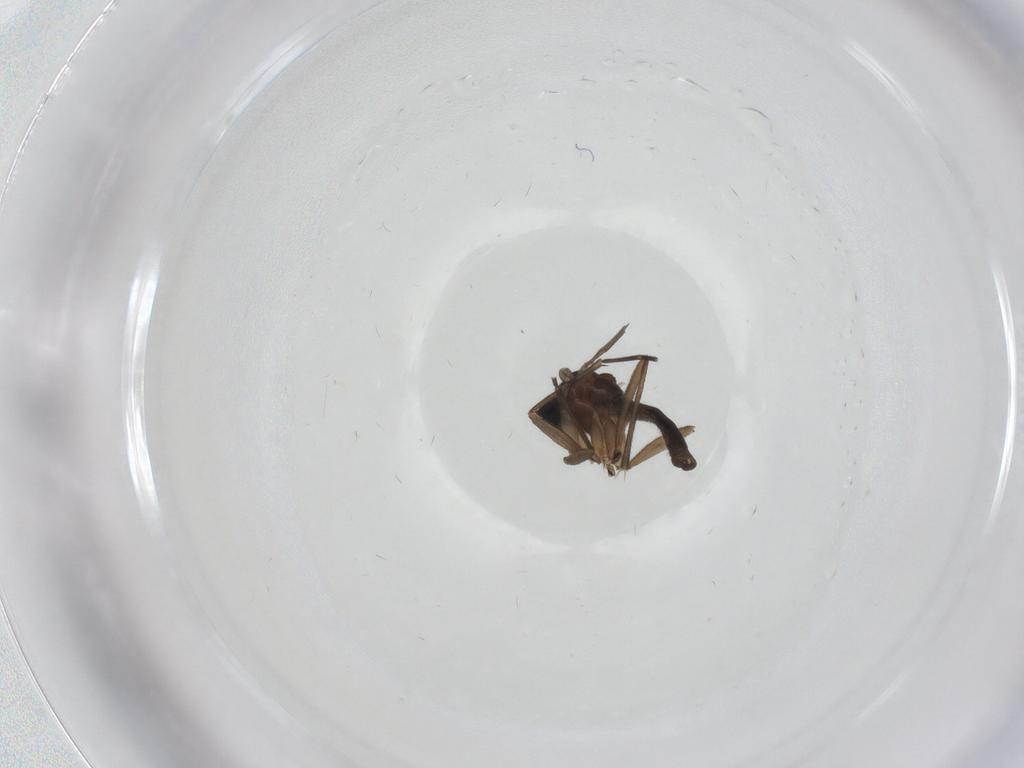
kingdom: Animalia
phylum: Arthropoda
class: Insecta
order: Diptera
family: Sciaridae
